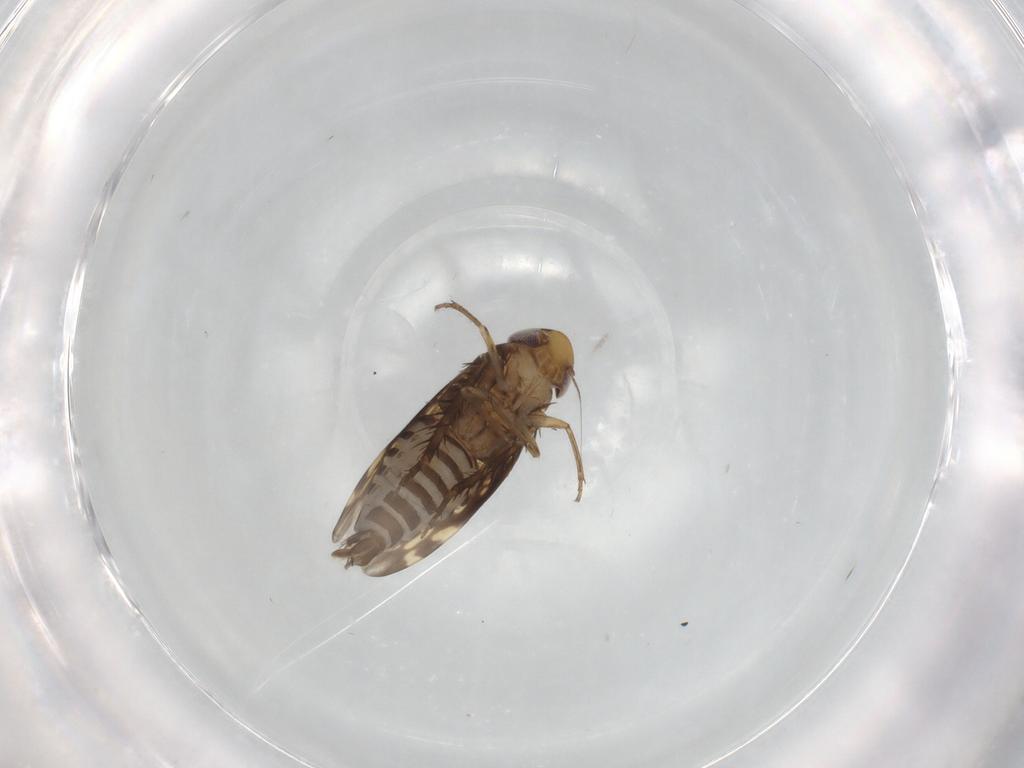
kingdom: Animalia
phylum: Arthropoda
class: Insecta
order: Hemiptera
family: Cicadellidae
